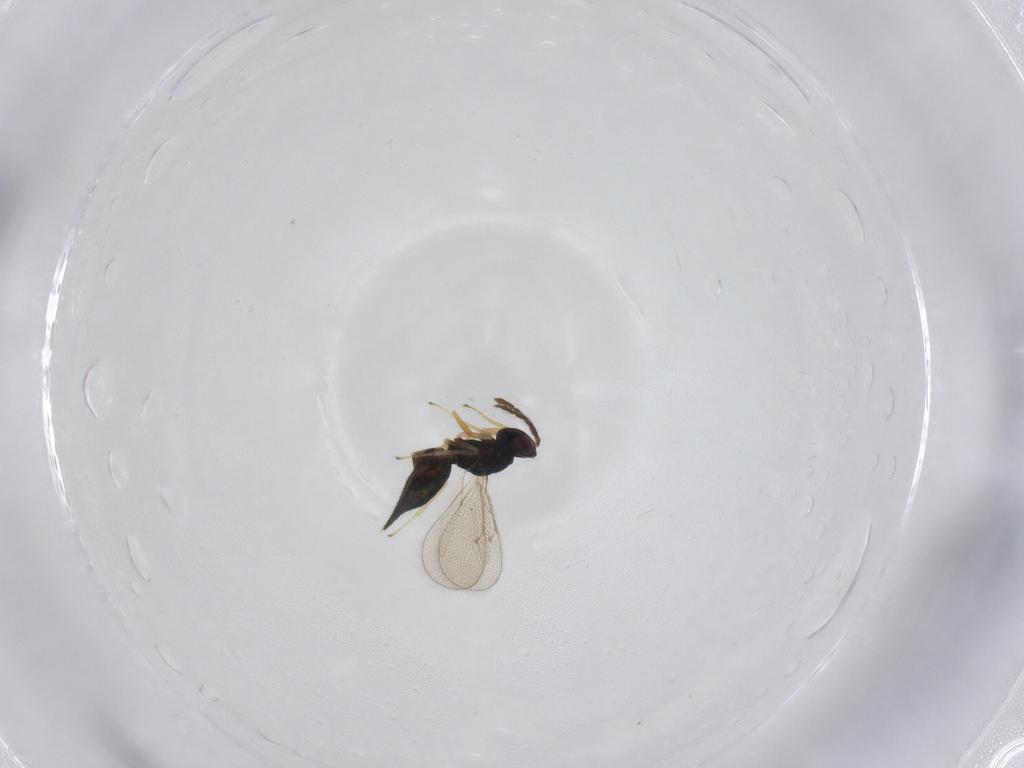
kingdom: Animalia
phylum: Arthropoda
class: Insecta
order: Hymenoptera
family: Eulophidae
